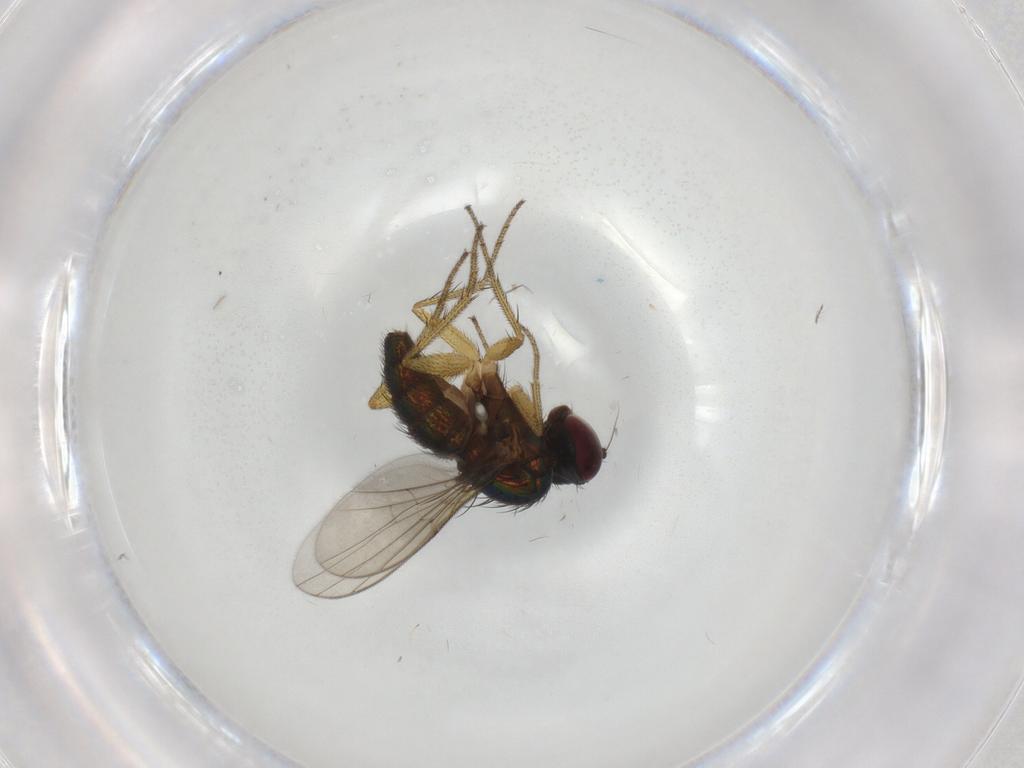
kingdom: Animalia
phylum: Arthropoda
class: Insecta
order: Diptera
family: Chironomidae
